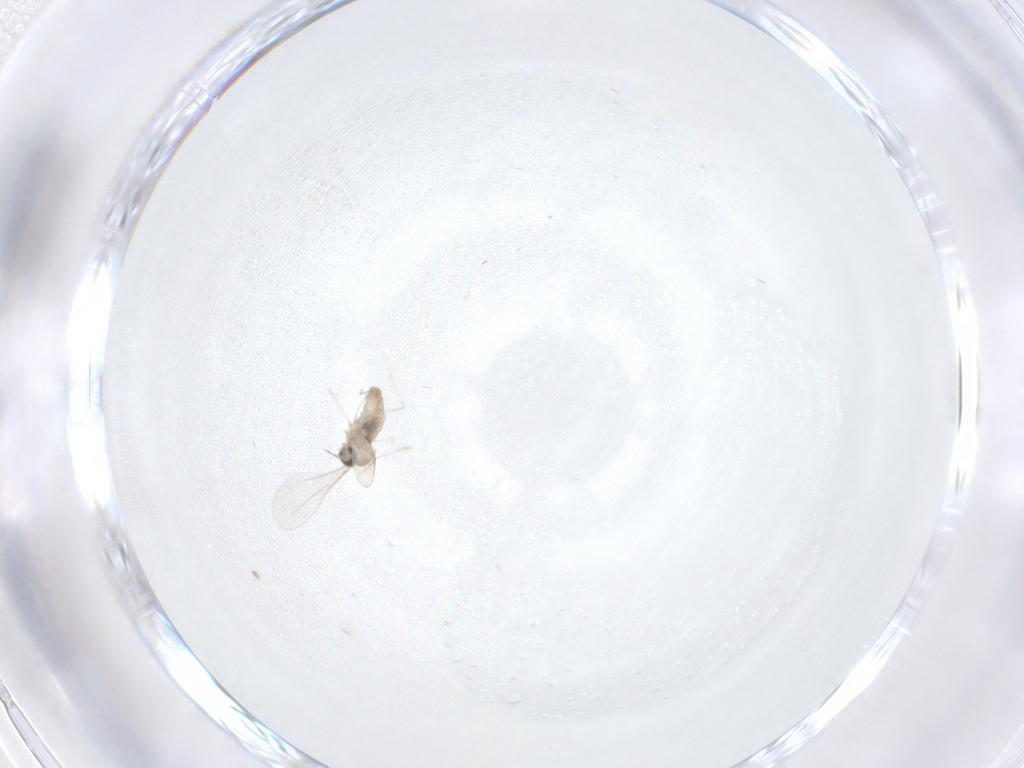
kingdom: Animalia
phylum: Arthropoda
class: Insecta
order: Diptera
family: Cecidomyiidae
